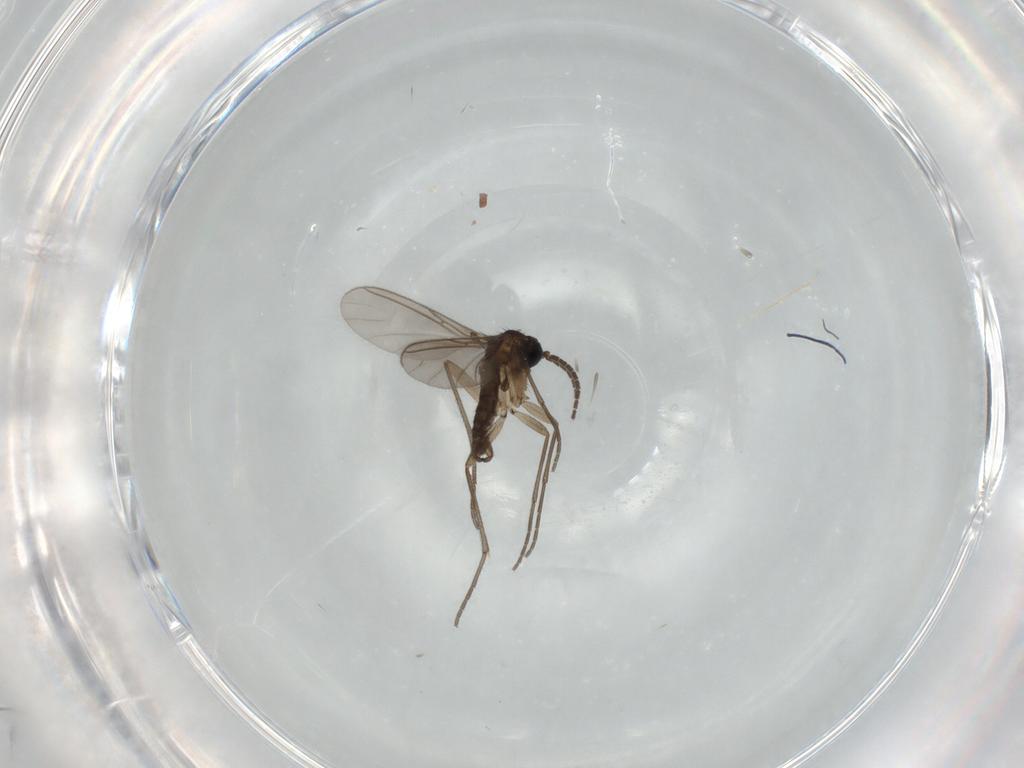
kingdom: Animalia
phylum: Arthropoda
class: Insecta
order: Diptera
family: Sciaridae
